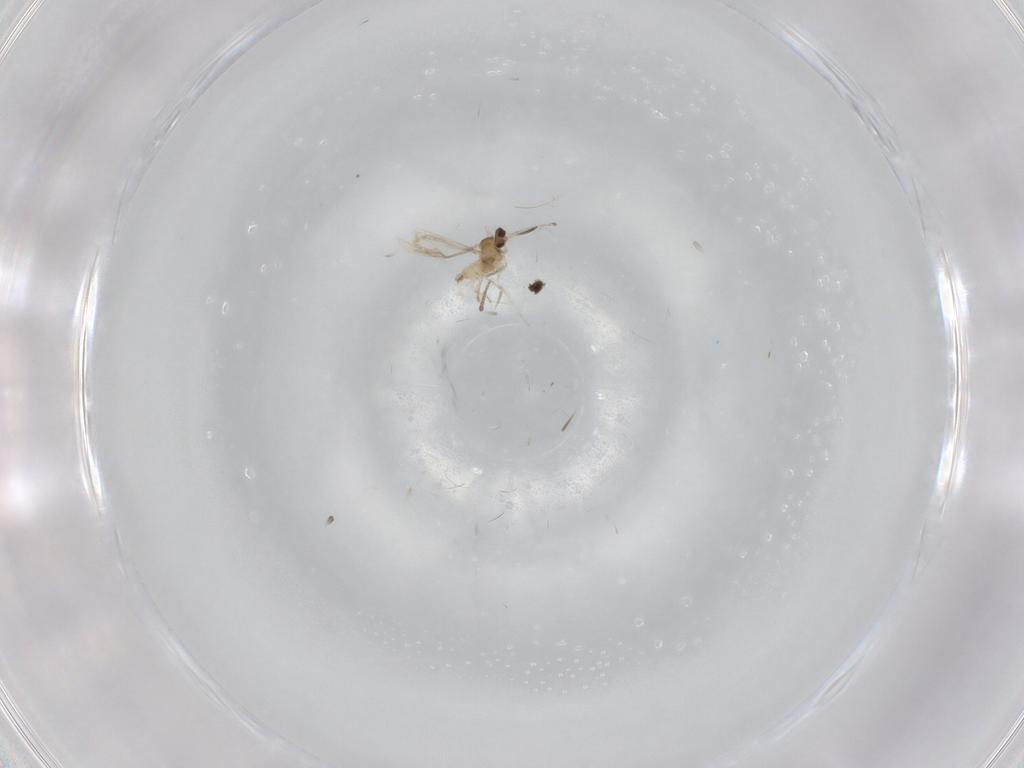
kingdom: Animalia
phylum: Arthropoda
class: Insecta
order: Diptera
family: Cecidomyiidae
